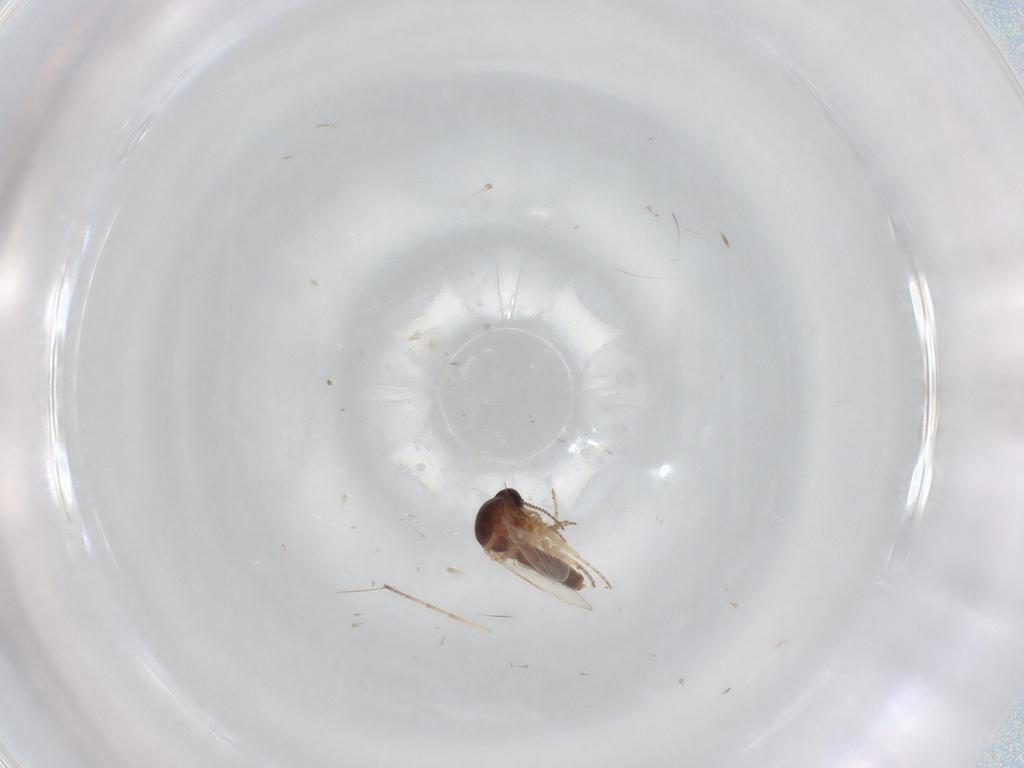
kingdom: Animalia
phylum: Arthropoda
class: Insecta
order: Diptera
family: Ceratopogonidae
